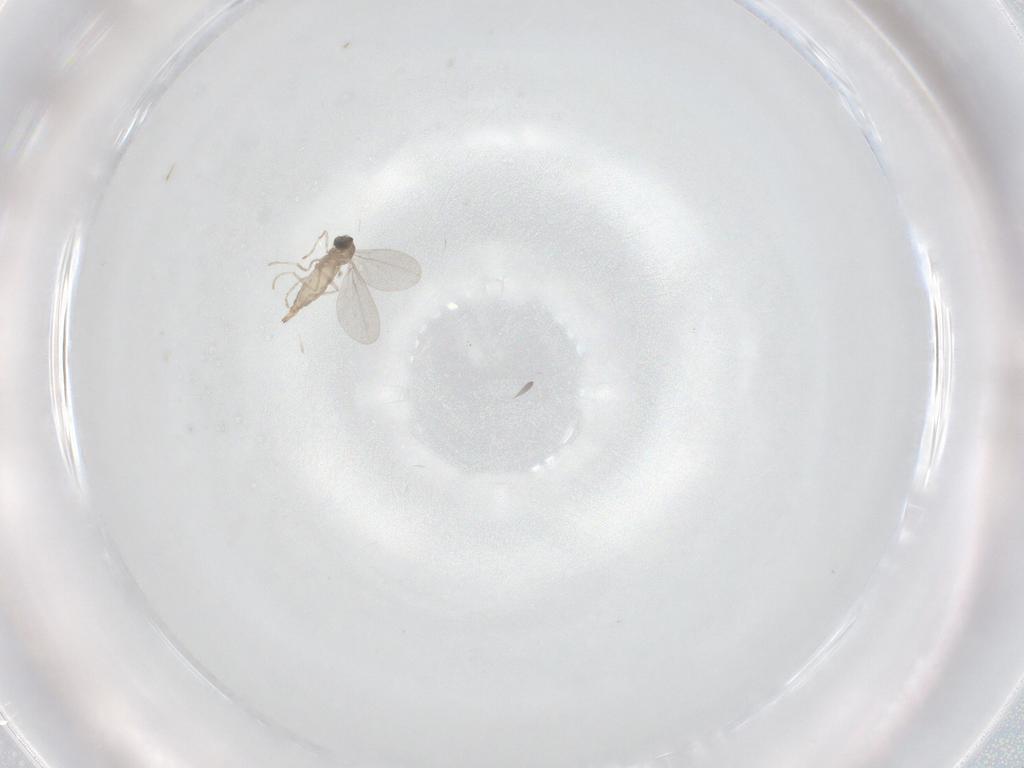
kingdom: Animalia
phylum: Arthropoda
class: Insecta
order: Diptera
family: Cecidomyiidae
